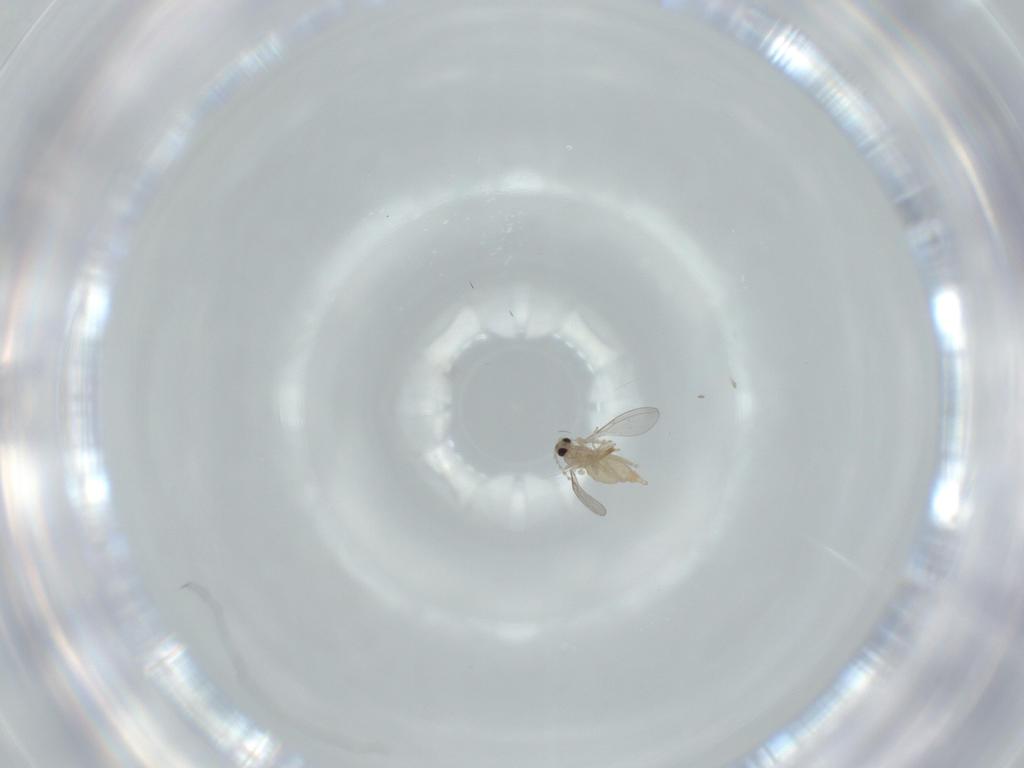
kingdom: Animalia
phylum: Arthropoda
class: Insecta
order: Diptera
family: Cecidomyiidae
